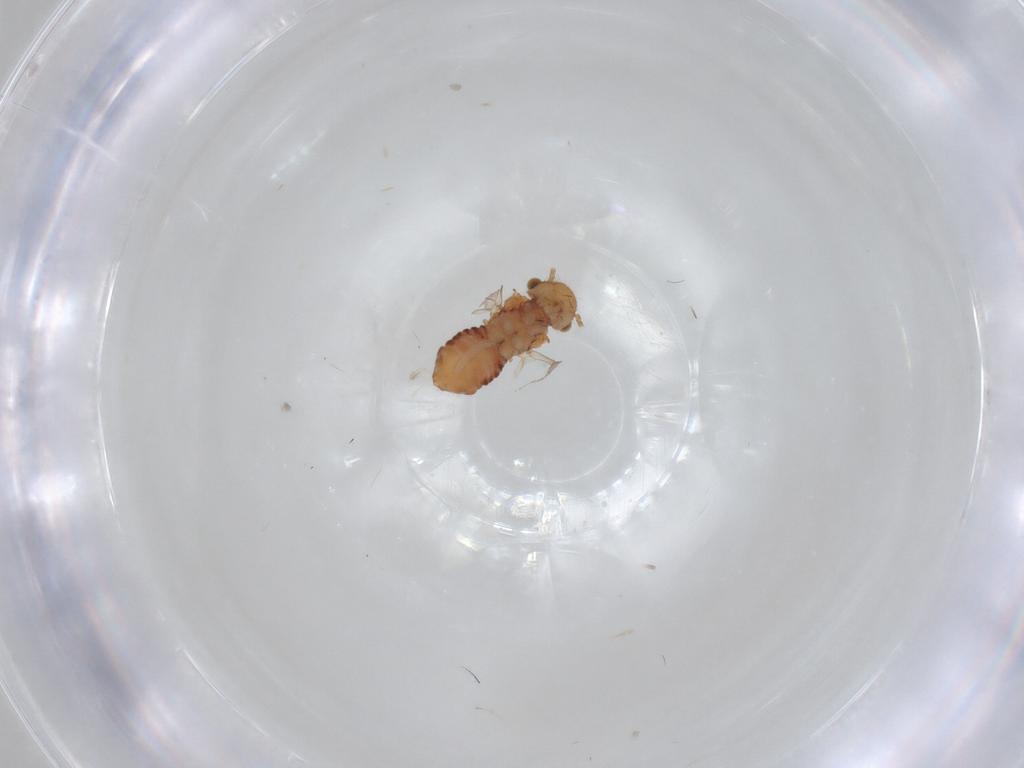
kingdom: Animalia
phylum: Arthropoda
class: Insecta
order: Psocodea
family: Ectopsocidae
